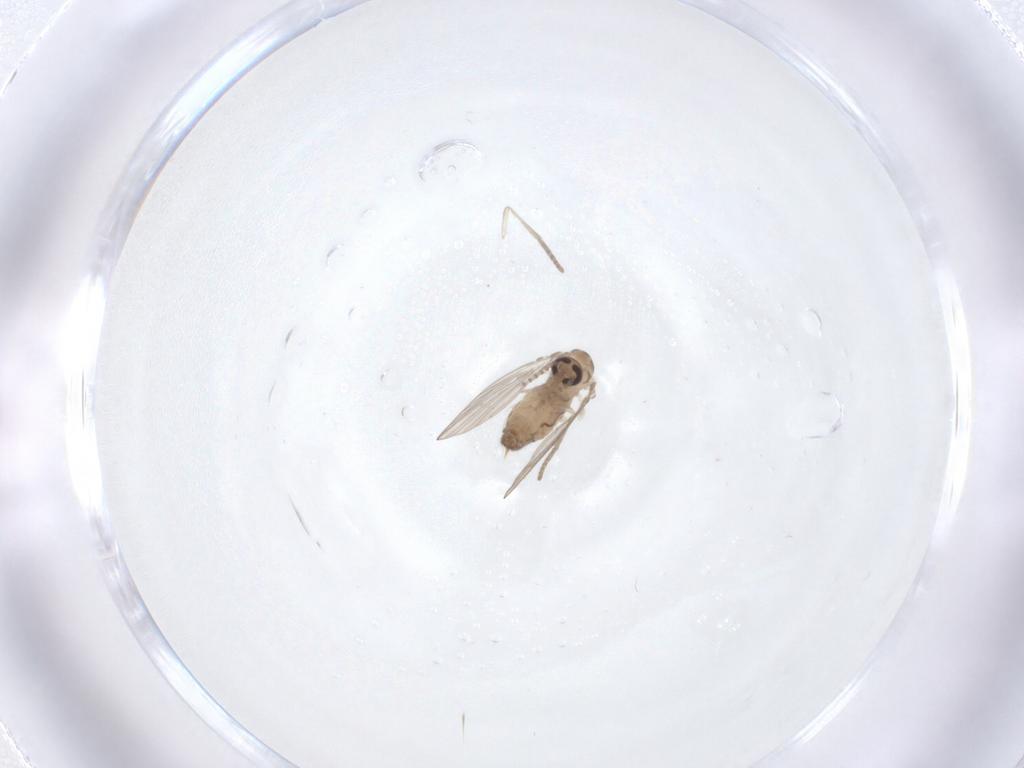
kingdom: Animalia
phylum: Arthropoda
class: Insecta
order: Diptera
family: Psychodidae
